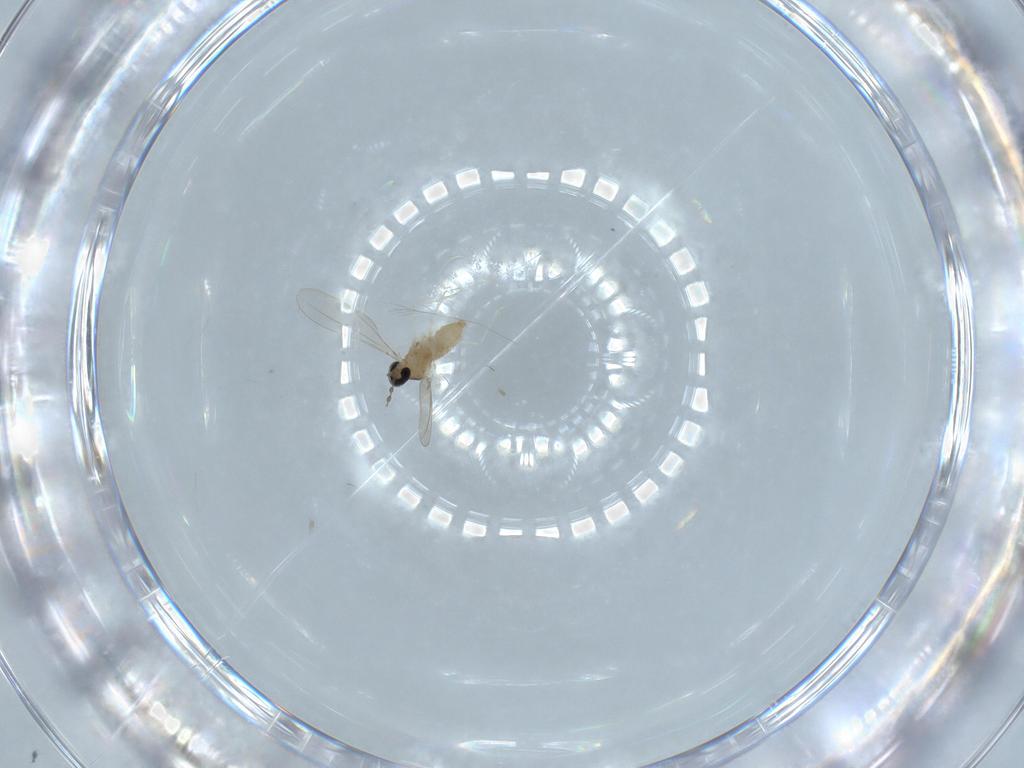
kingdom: Animalia
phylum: Arthropoda
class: Insecta
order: Diptera
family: Cecidomyiidae
